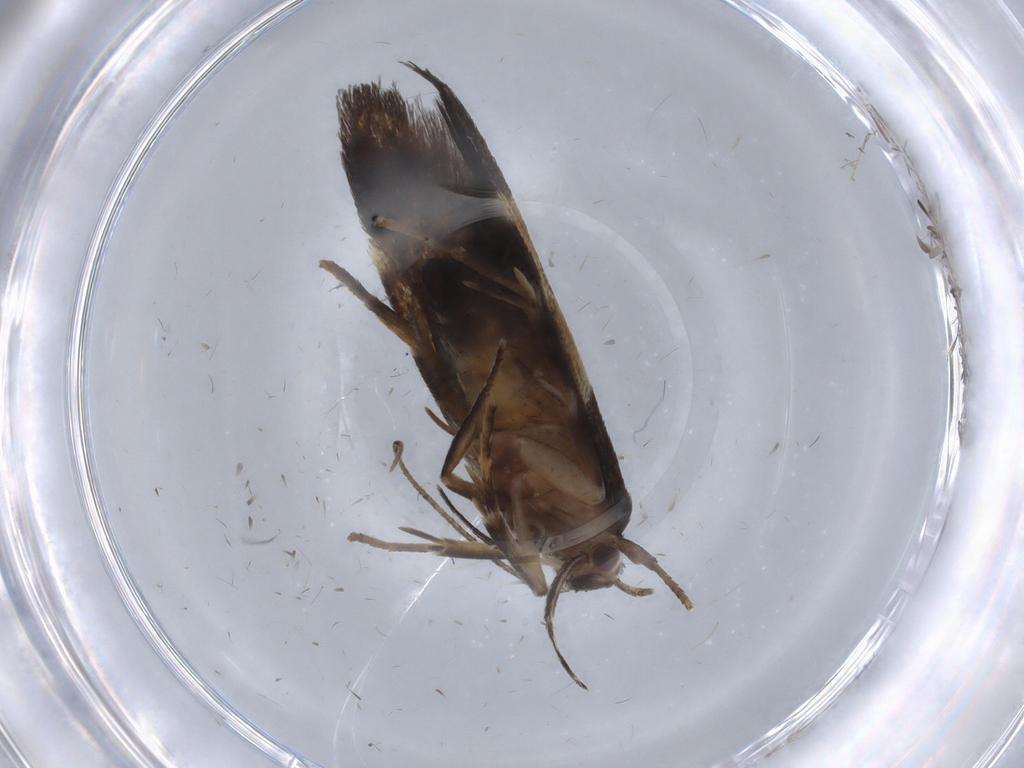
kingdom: Animalia
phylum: Arthropoda
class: Insecta
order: Lepidoptera
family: Cosmopterigidae
